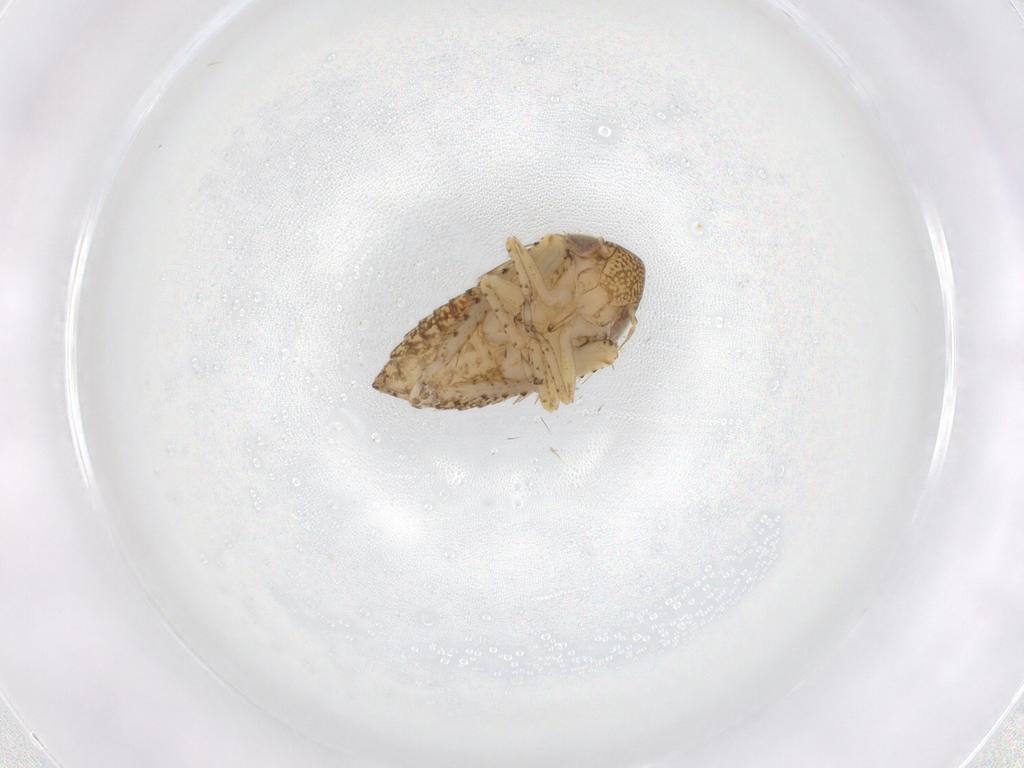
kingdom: Animalia
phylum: Arthropoda
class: Insecta
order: Hemiptera
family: Cicadellidae
